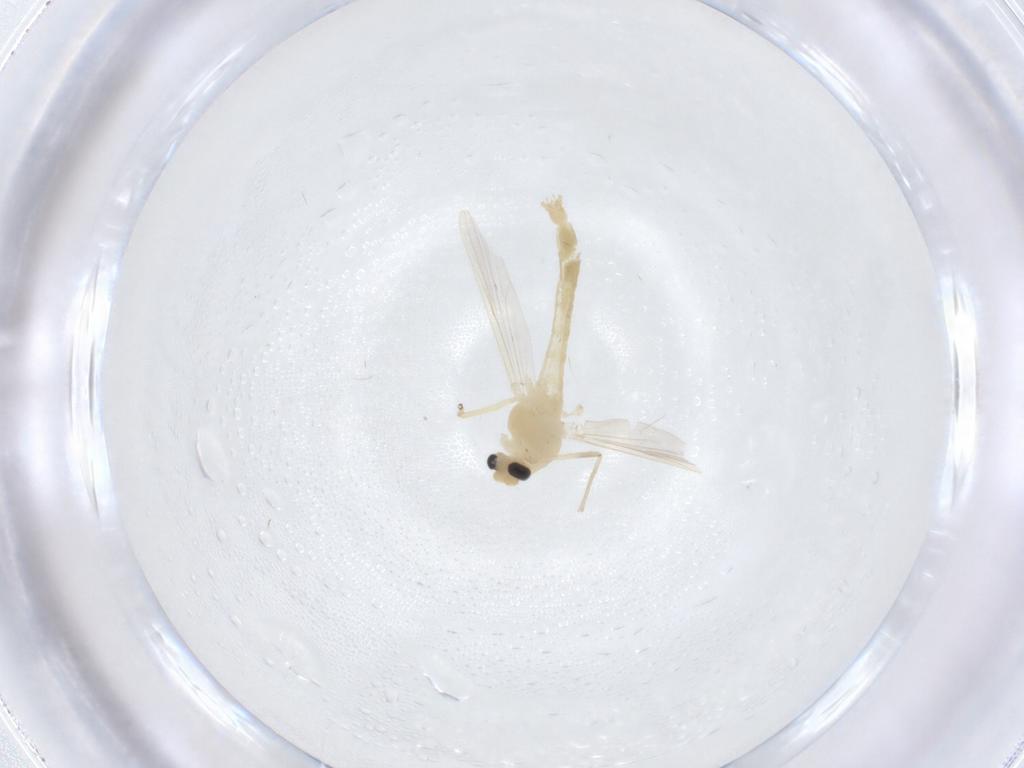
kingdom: Animalia
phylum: Arthropoda
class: Insecta
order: Diptera
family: Chironomidae
